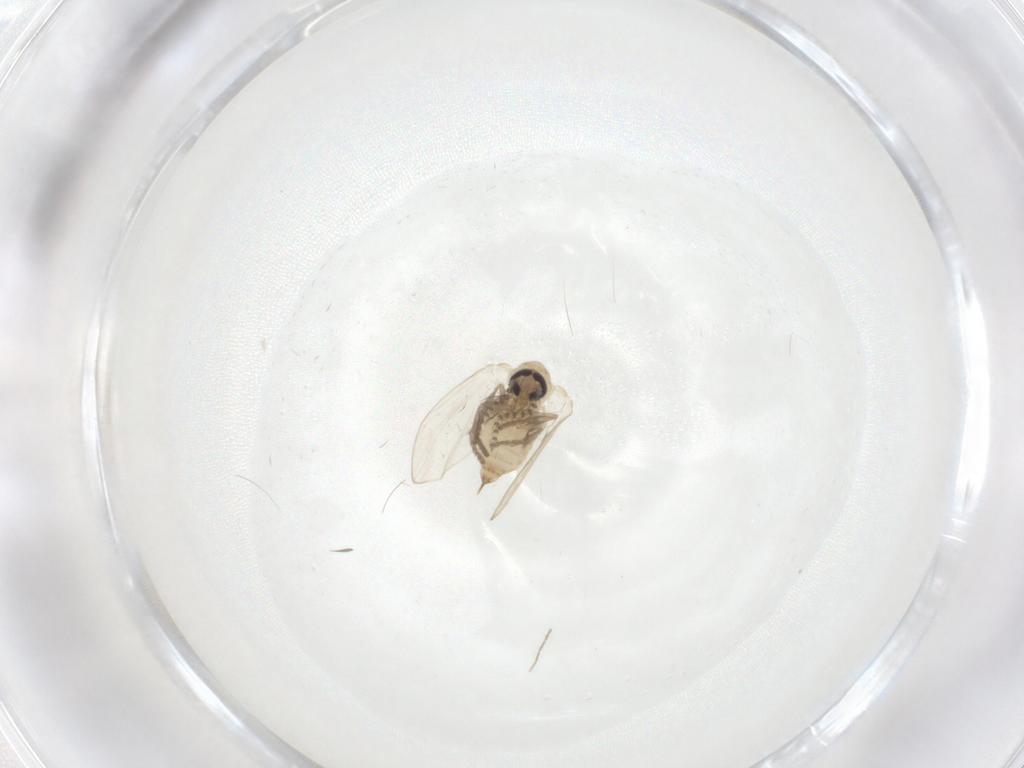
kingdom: Animalia
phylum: Arthropoda
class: Insecta
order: Diptera
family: Psychodidae
